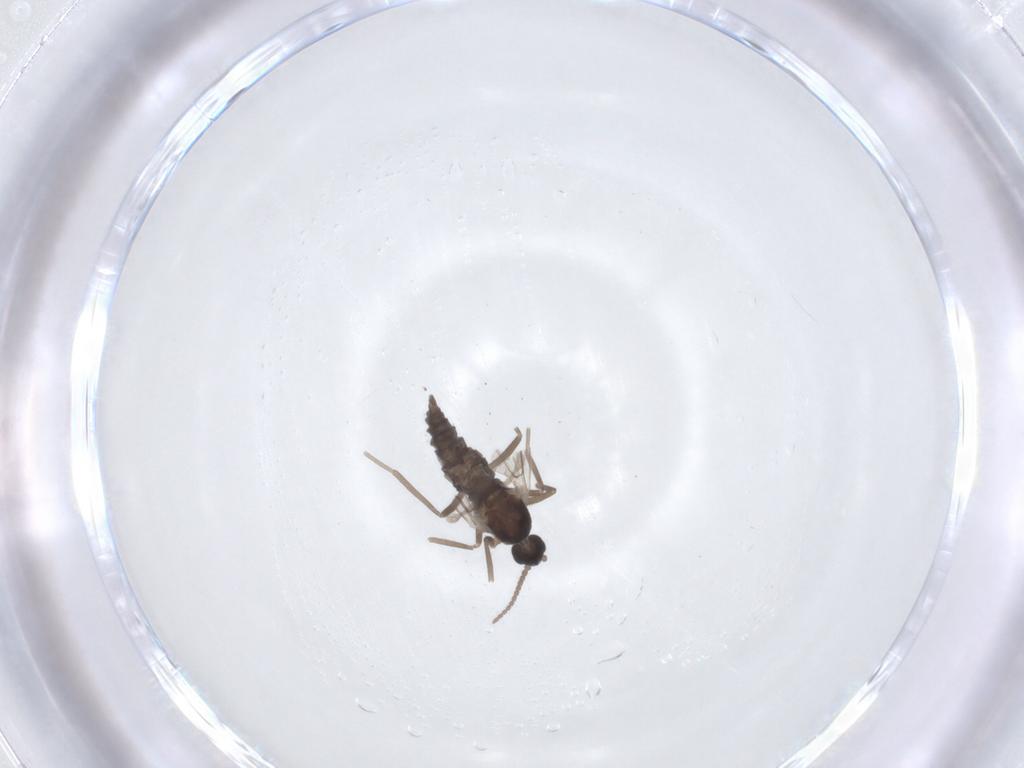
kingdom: Animalia
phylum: Arthropoda
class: Insecta
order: Diptera
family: Cecidomyiidae
